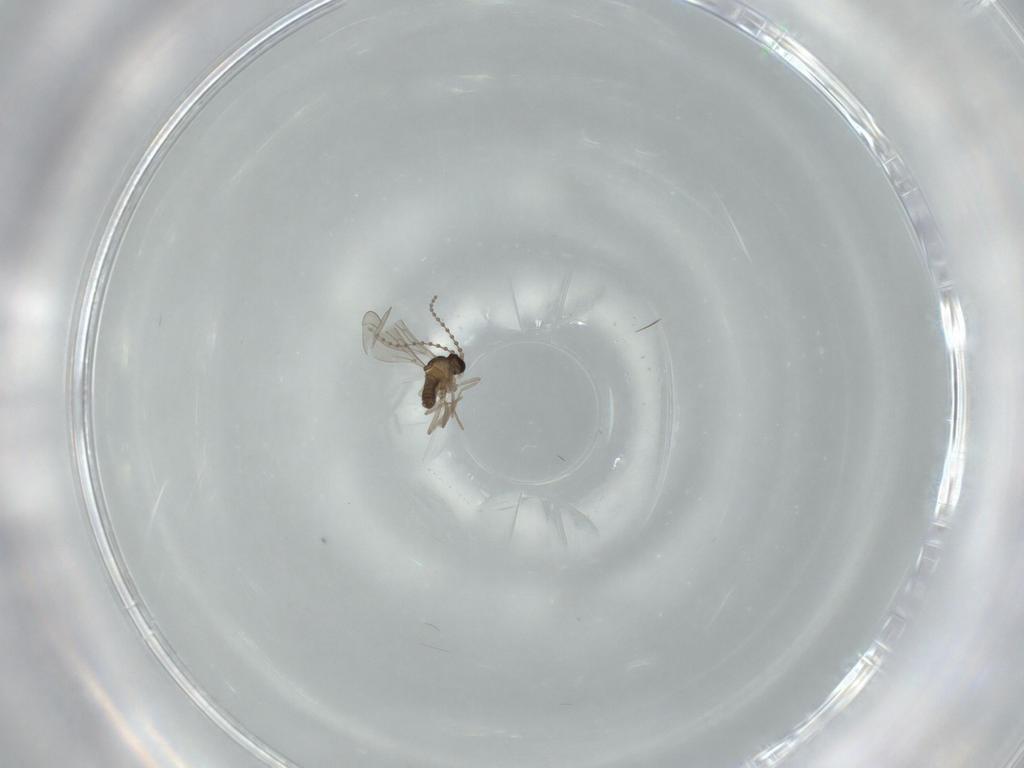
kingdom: Animalia
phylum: Arthropoda
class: Insecta
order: Diptera
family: Cecidomyiidae
